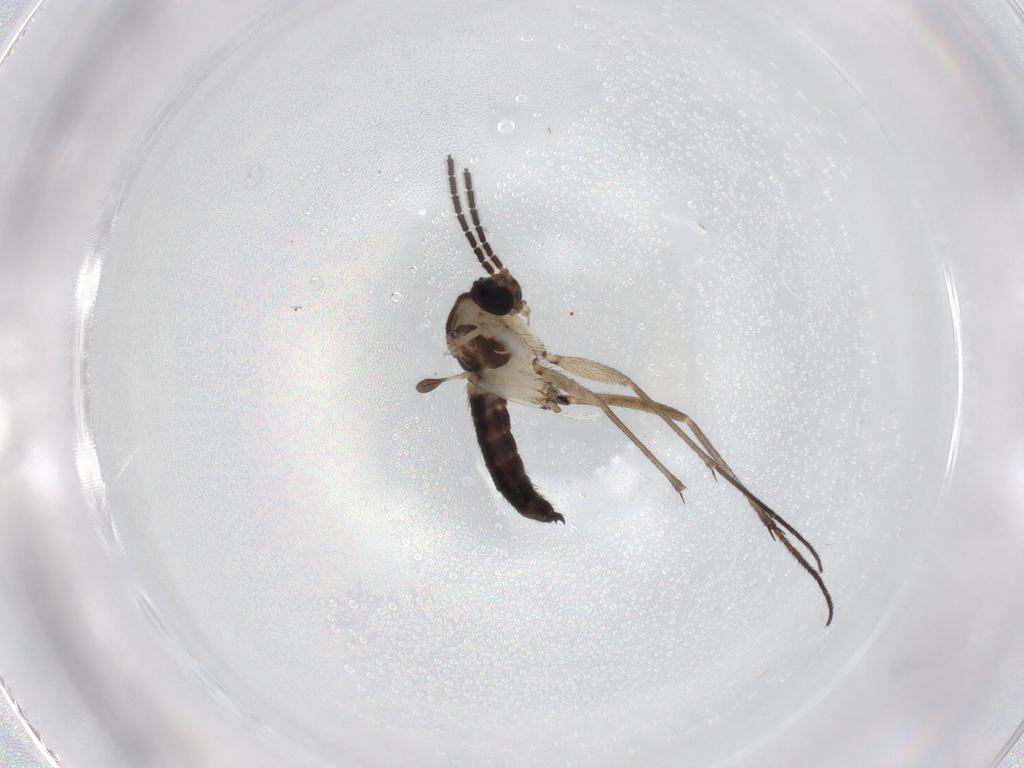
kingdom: Animalia
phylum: Arthropoda
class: Insecta
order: Diptera
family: Sciaridae
